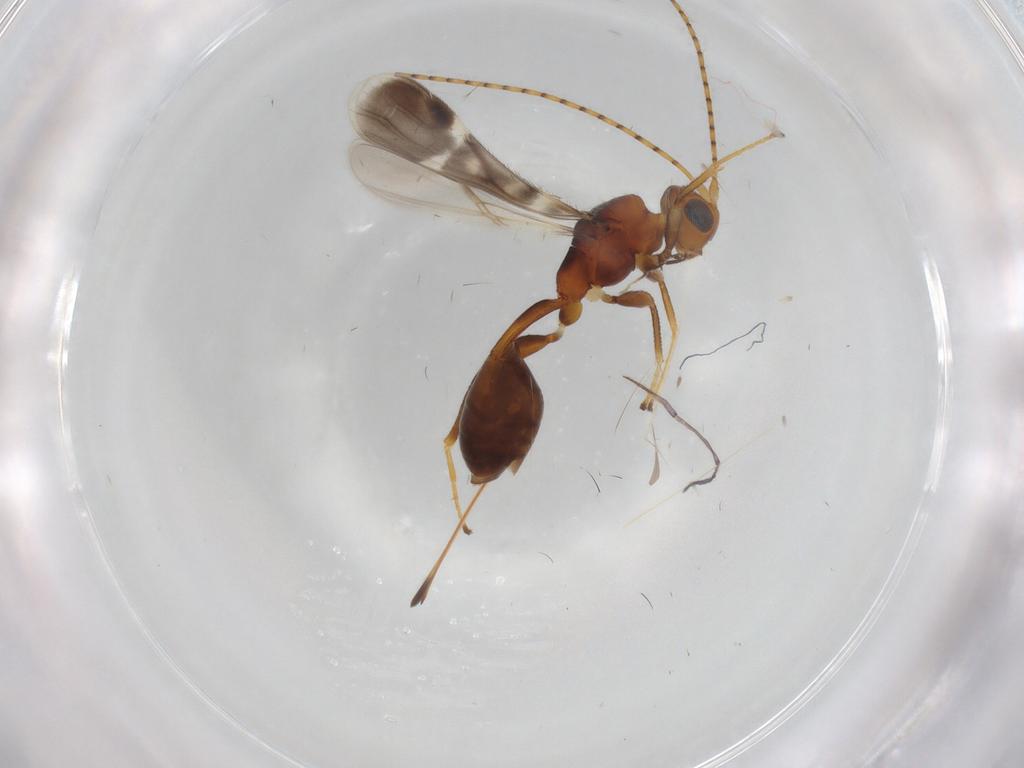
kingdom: Animalia
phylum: Arthropoda
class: Insecta
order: Hymenoptera
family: Braconidae
